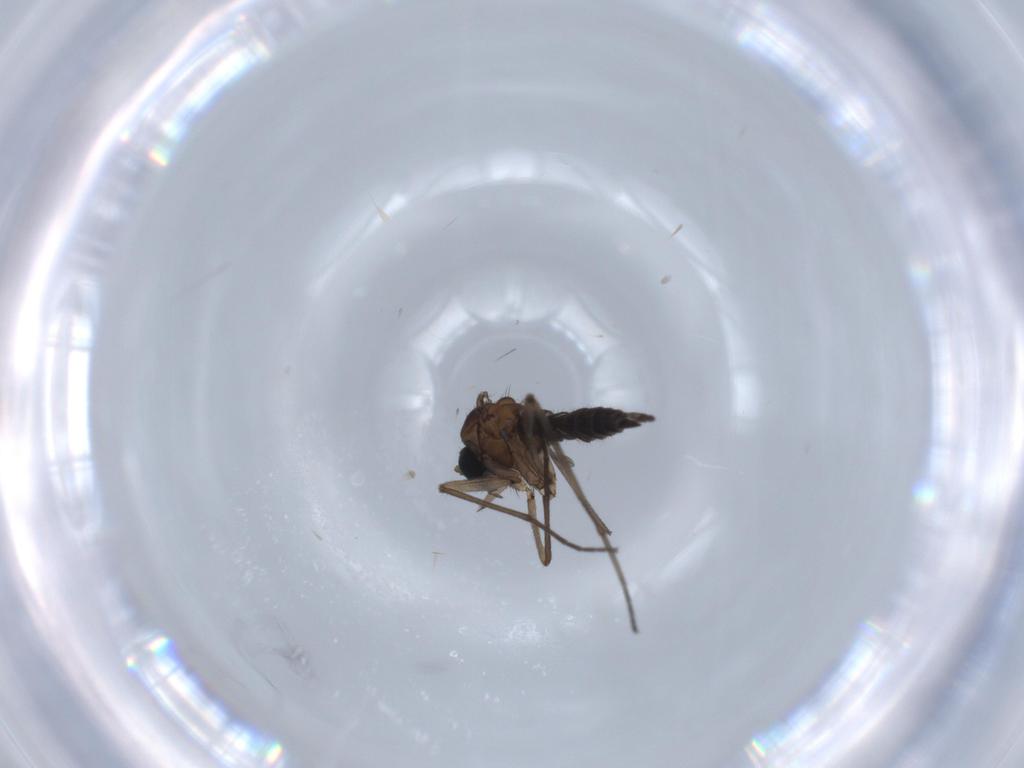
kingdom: Animalia
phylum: Arthropoda
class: Insecta
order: Diptera
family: Sciaridae
